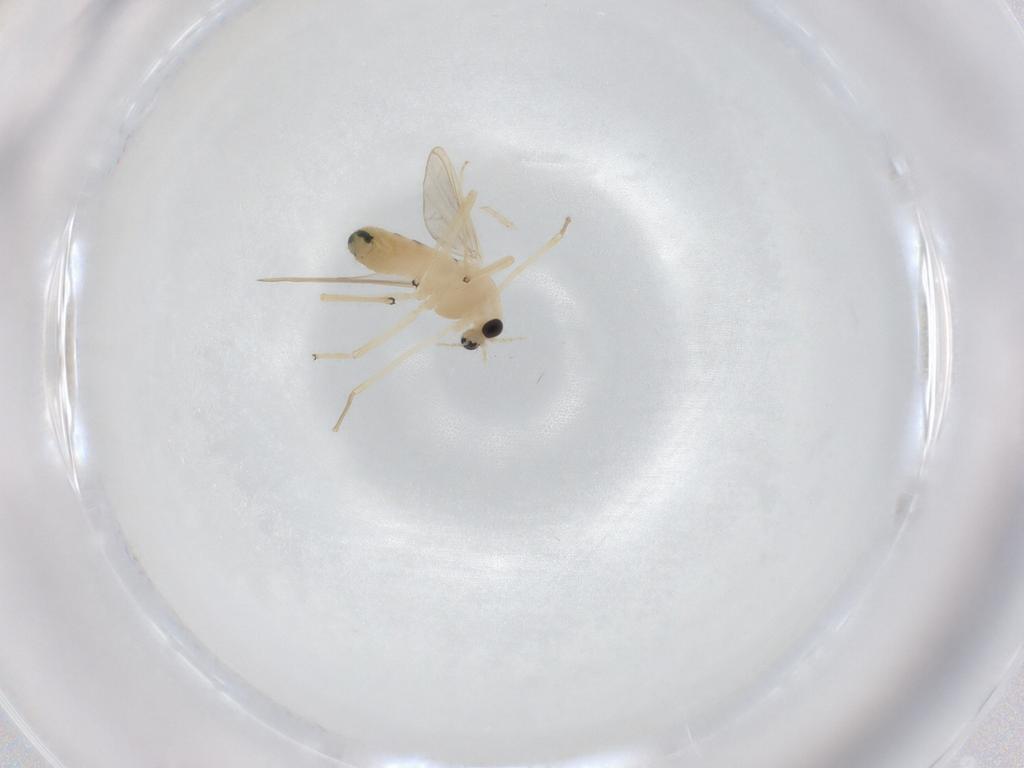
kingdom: Animalia
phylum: Arthropoda
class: Insecta
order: Diptera
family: Chironomidae
